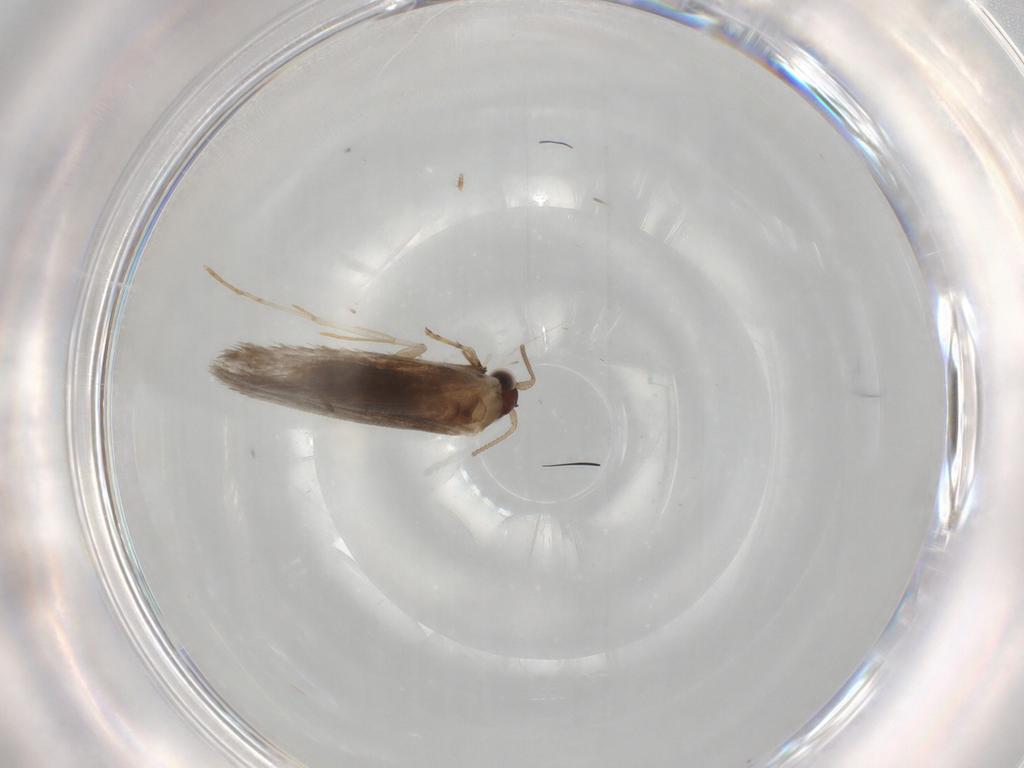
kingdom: Animalia
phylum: Arthropoda
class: Insecta
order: Lepidoptera
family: Tineidae
